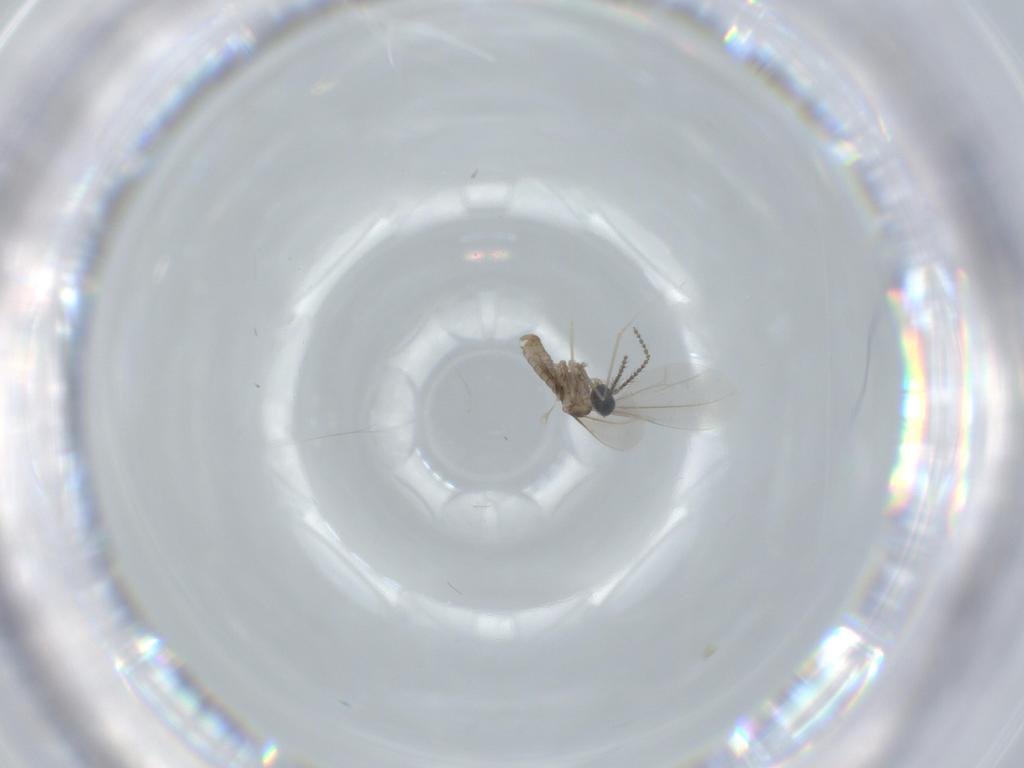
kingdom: Animalia
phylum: Arthropoda
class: Insecta
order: Diptera
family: Cecidomyiidae
